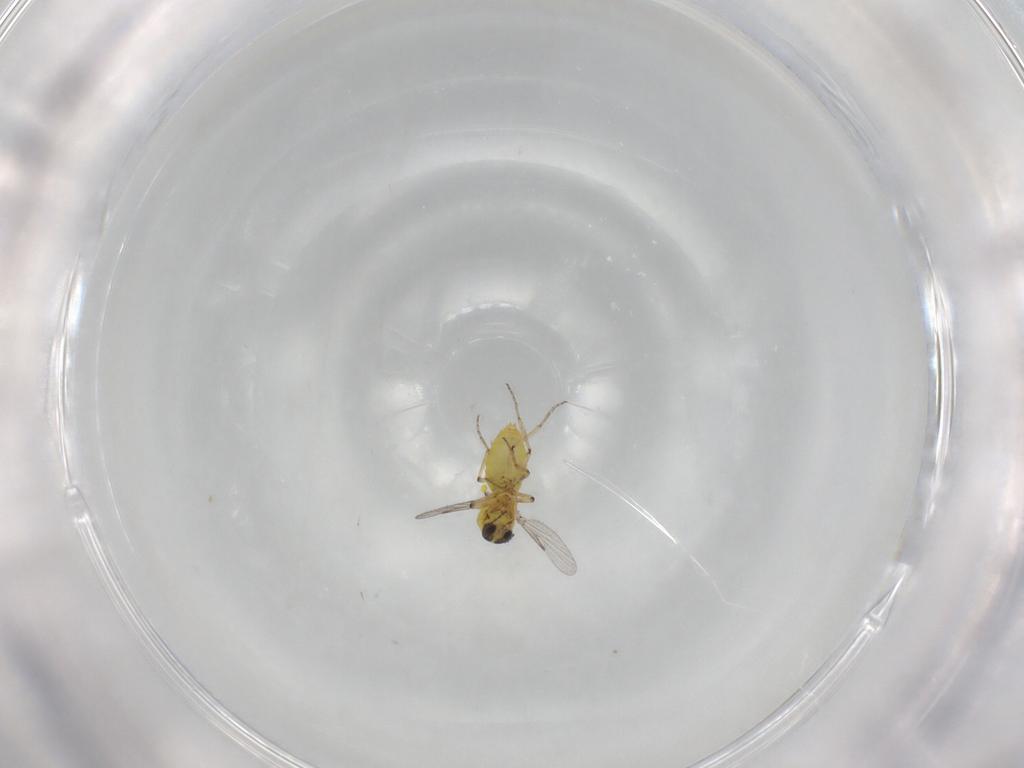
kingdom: Animalia
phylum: Arthropoda
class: Insecta
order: Diptera
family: Ceratopogonidae
